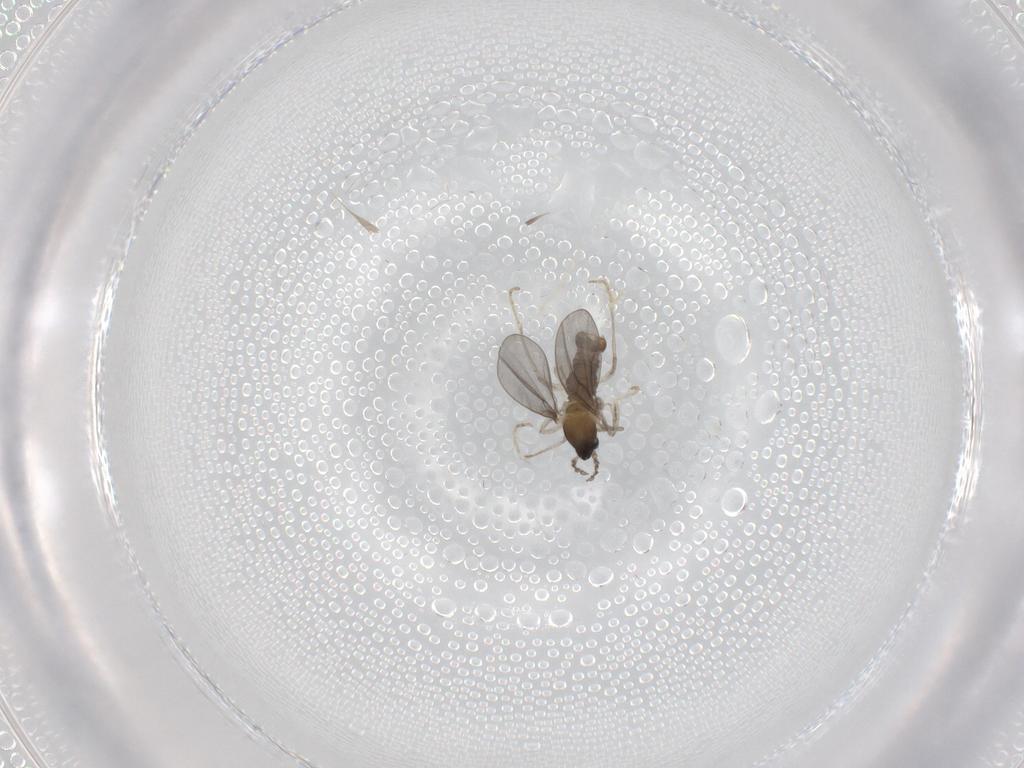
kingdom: Animalia
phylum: Arthropoda
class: Insecta
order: Diptera
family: Cecidomyiidae
